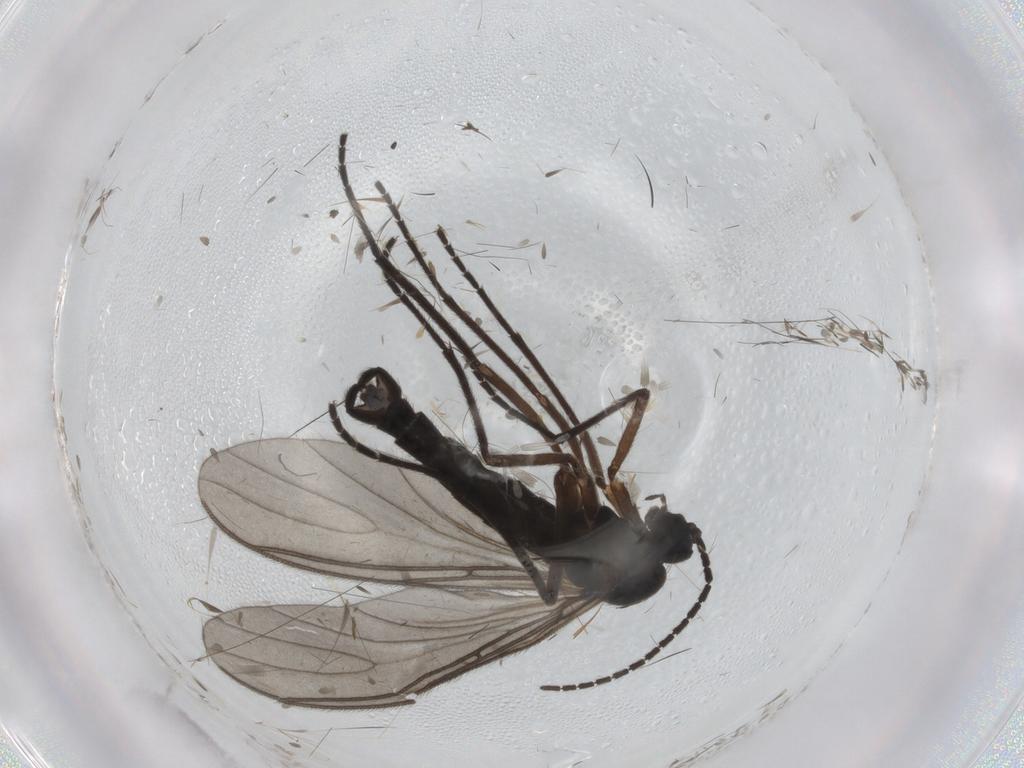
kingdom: Animalia
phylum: Arthropoda
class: Insecta
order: Diptera
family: Sciaridae
